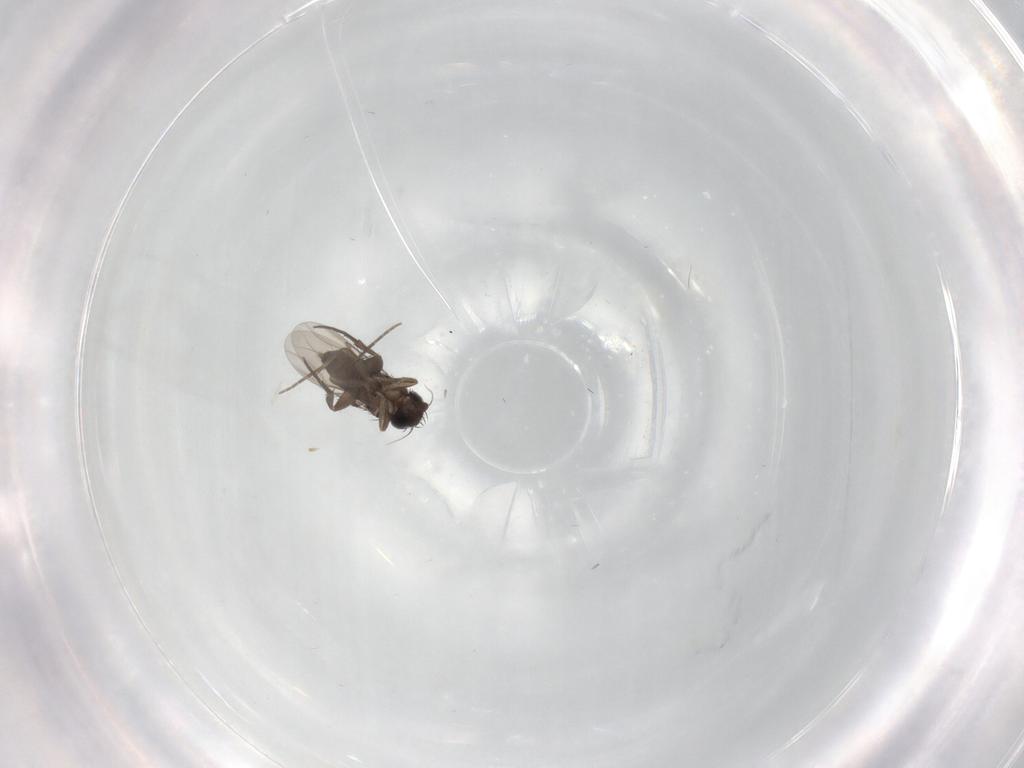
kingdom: Animalia
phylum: Arthropoda
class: Insecta
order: Diptera
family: Phoridae
